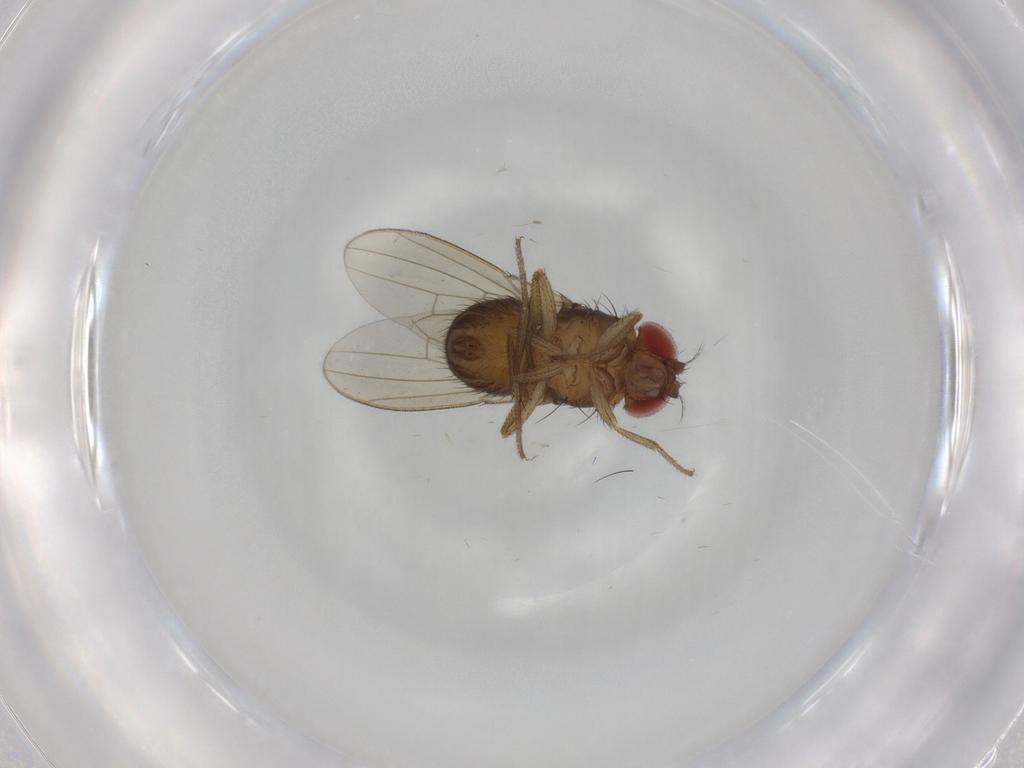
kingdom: Animalia
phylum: Arthropoda
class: Insecta
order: Diptera
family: Drosophilidae
